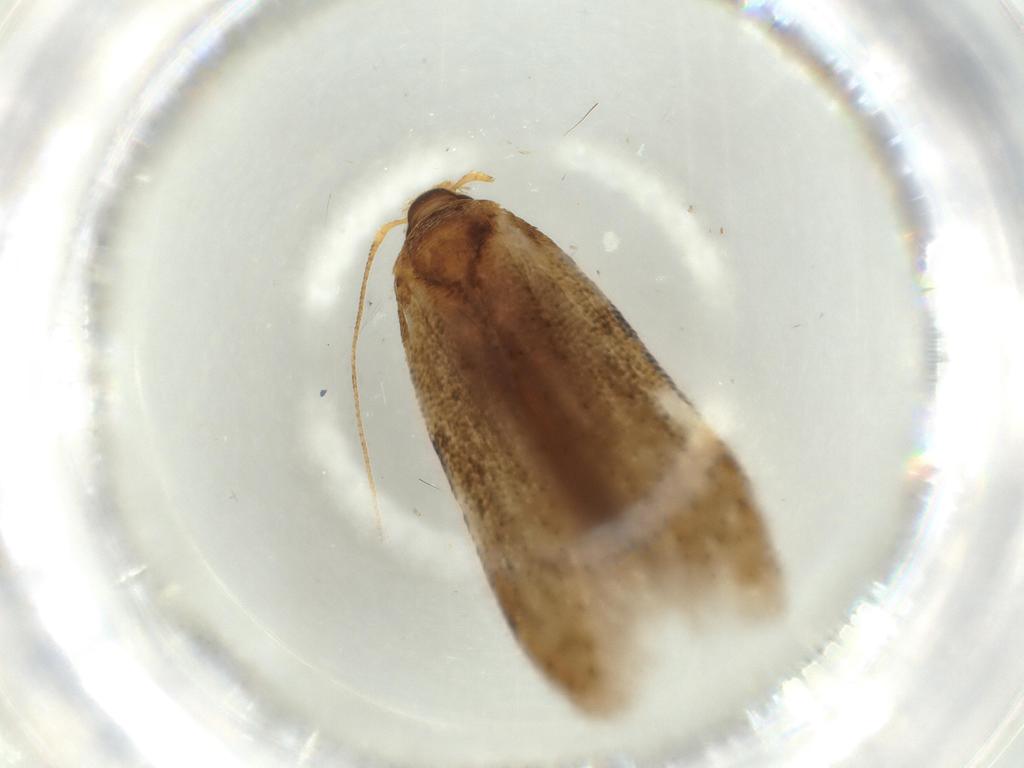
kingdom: Animalia
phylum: Arthropoda
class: Insecta
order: Lepidoptera
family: Blastobasidae
